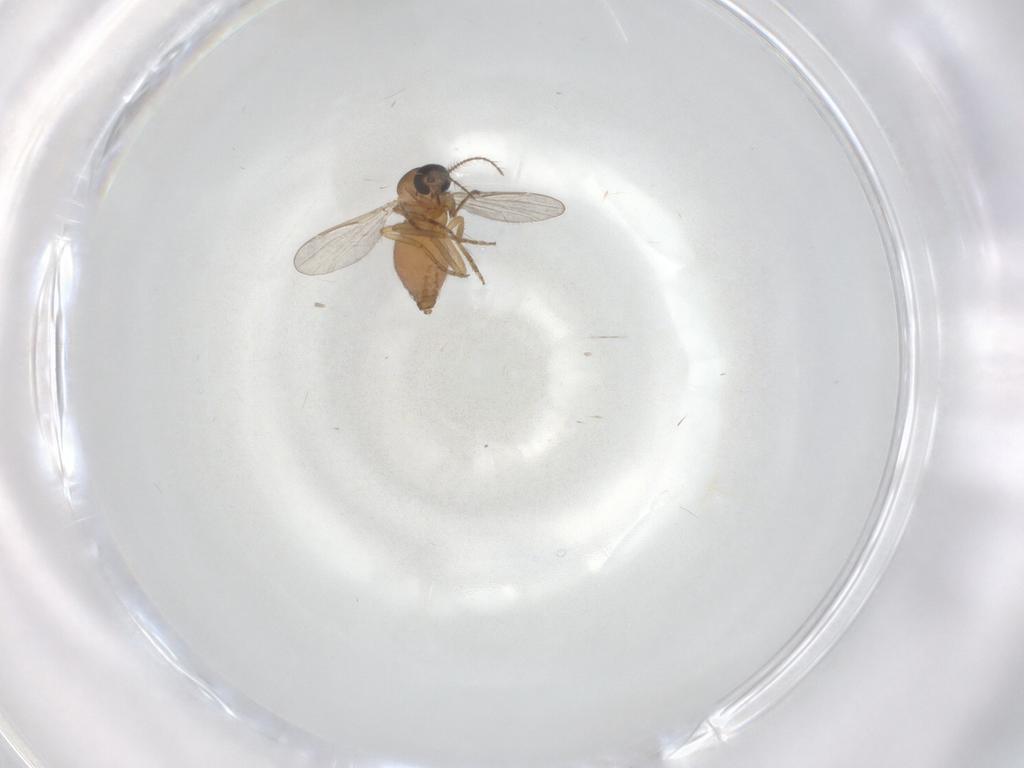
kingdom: Animalia
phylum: Arthropoda
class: Insecta
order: Diptera
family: Ceratopogonidae
